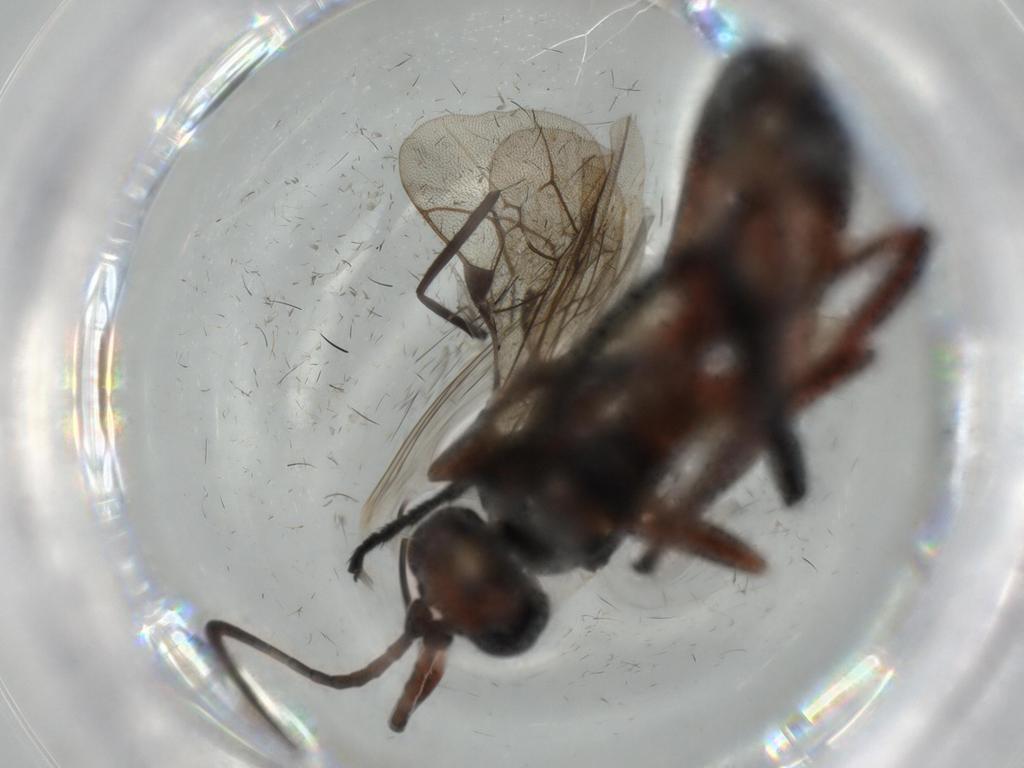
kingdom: Animalia
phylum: Arthropoda
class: Insecta
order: Hymenoptera
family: Ichneumonidae
